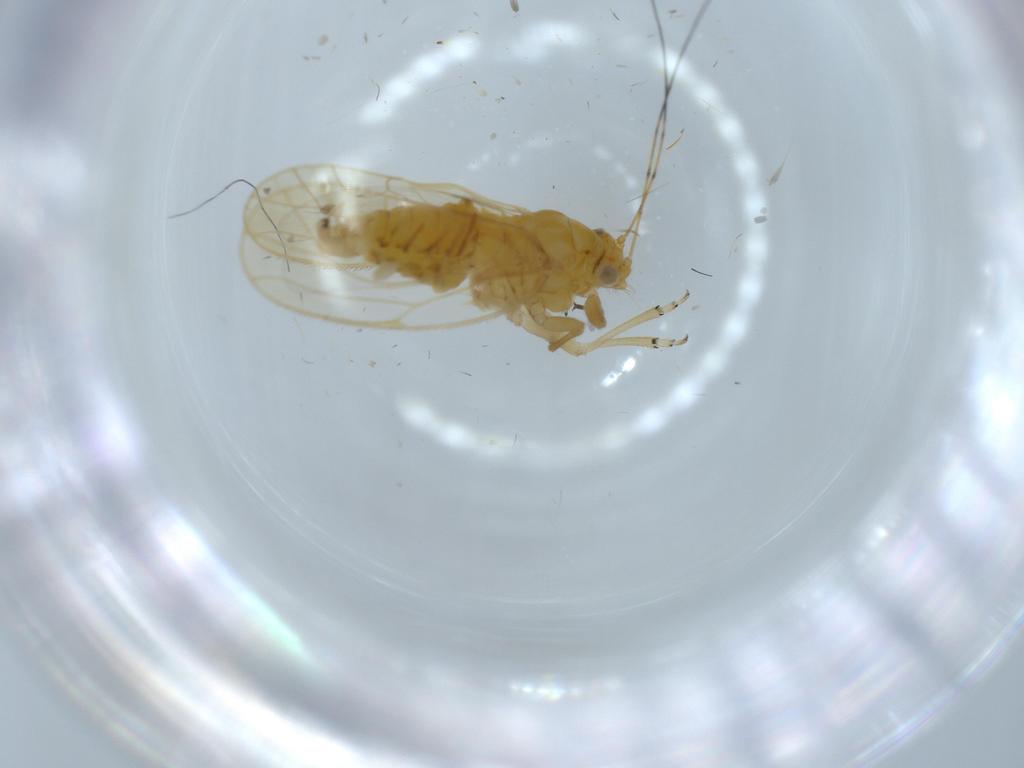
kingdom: Animalia
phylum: Arthropoda
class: Insecta
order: Hemiptera
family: Psyllidae
